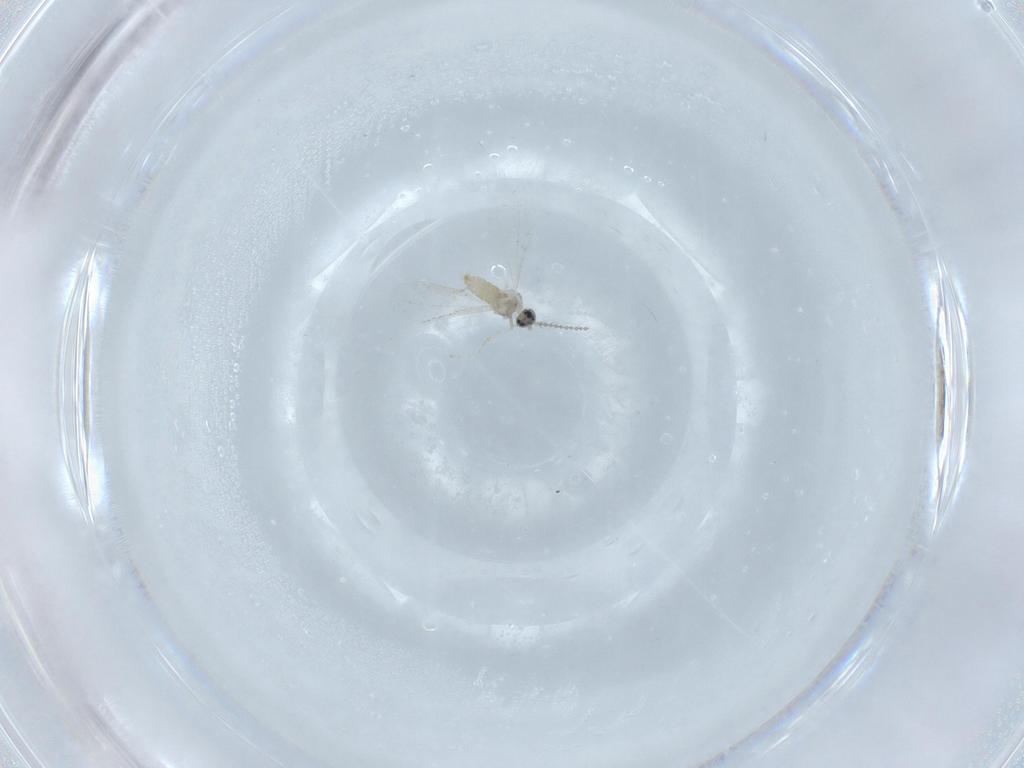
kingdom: Animalia
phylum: Arthropoda
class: Insecta
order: Diptera
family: Cecidomyiidae
